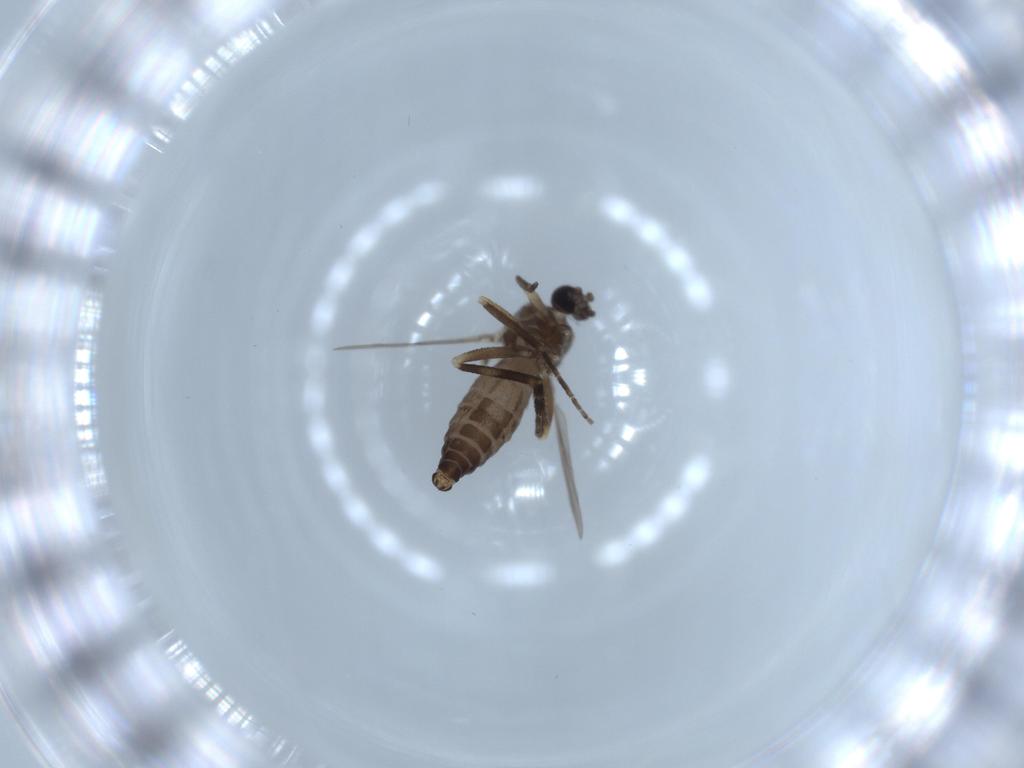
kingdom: Animalia
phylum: Arthropoda
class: Insecta
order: Diptera
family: Ceratopogonidae
